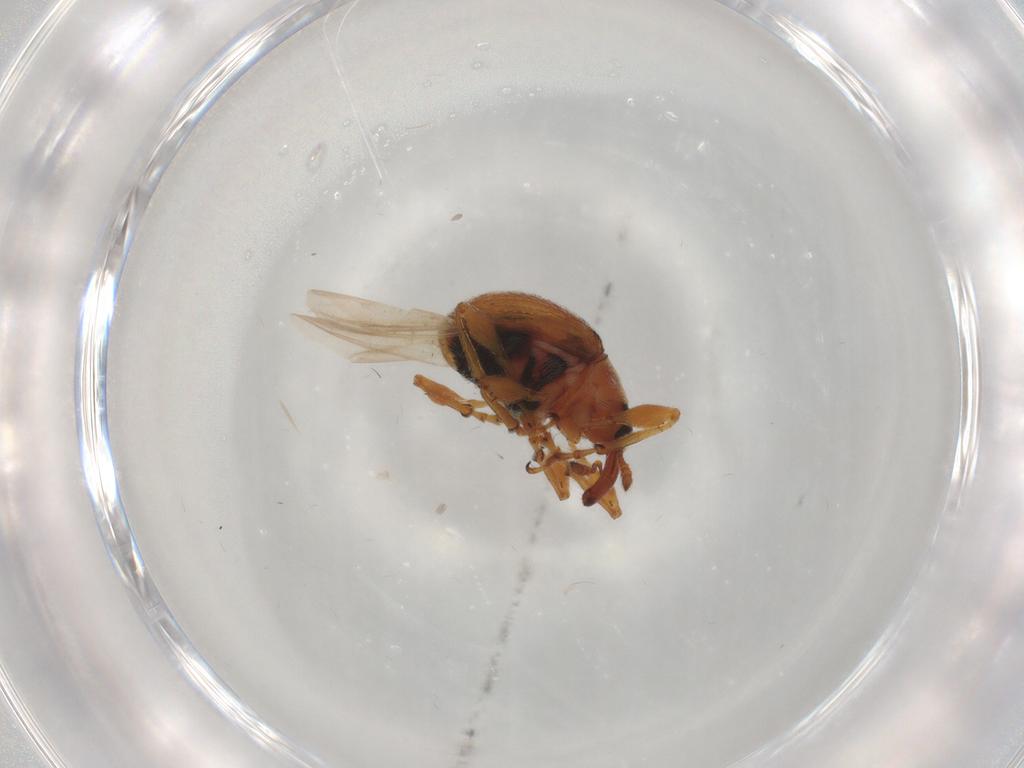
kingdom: Animalia
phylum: Arthropoda
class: Insecta
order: Coleoptera
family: Brentidae
